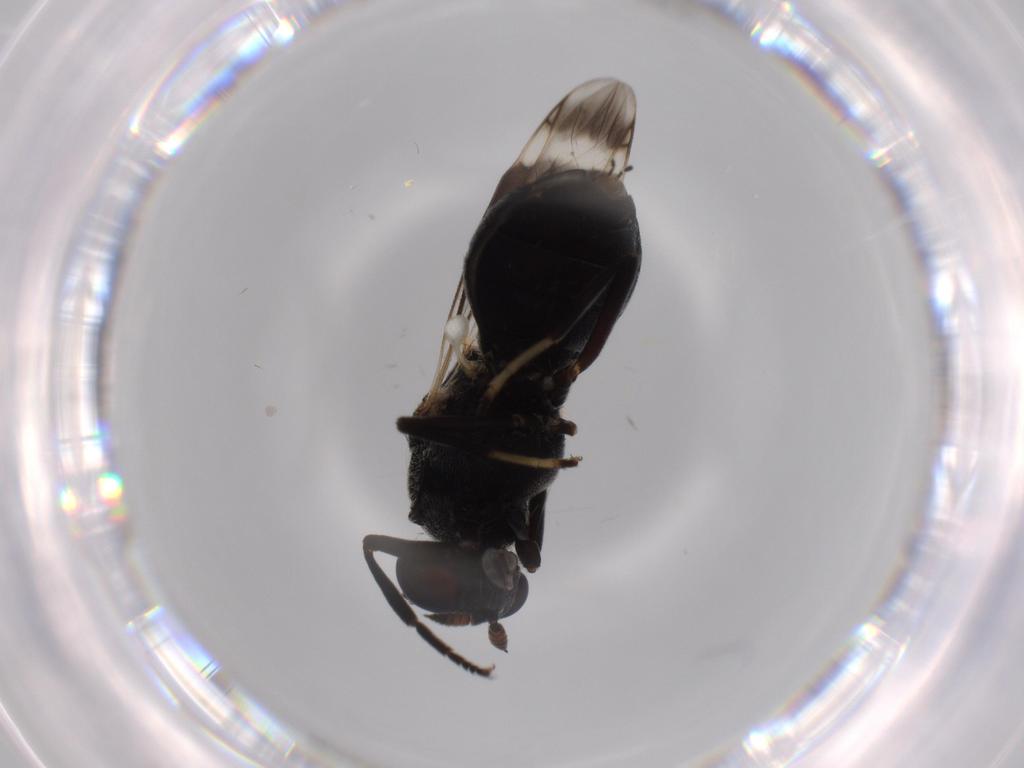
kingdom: Animalia
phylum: Arthropoda
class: Insecta
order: Diptera
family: Stratiomyidae
